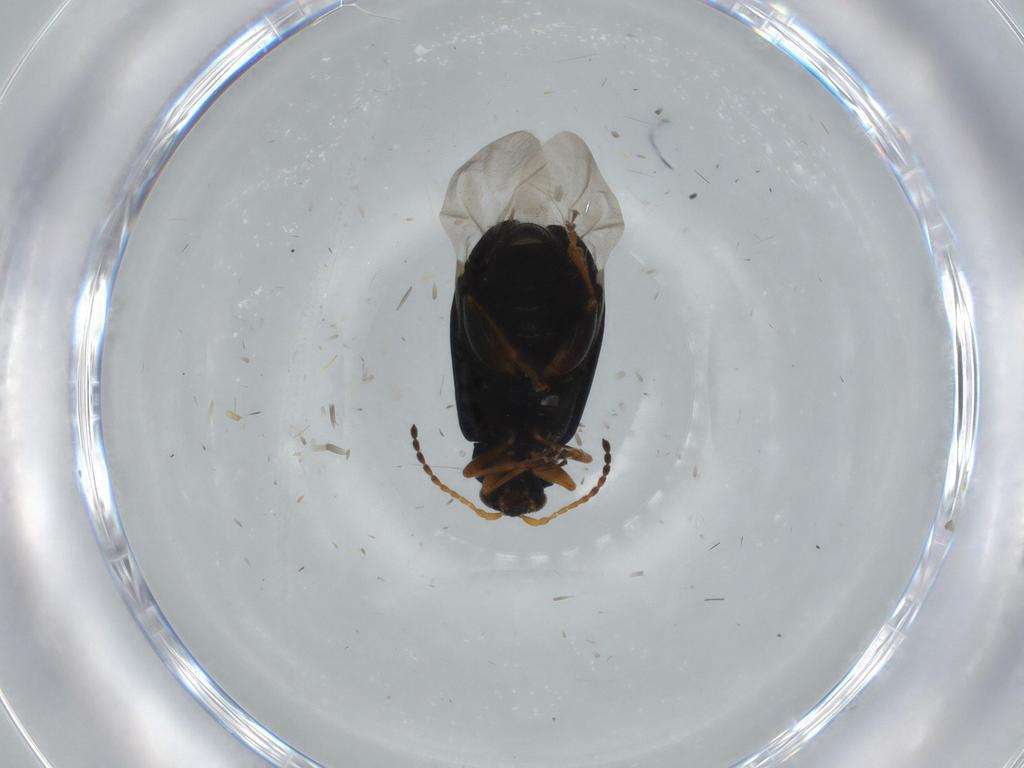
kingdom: Animalia
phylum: Arthropoda
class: Insecta
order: Coleoptera
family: Chrysomelidae
